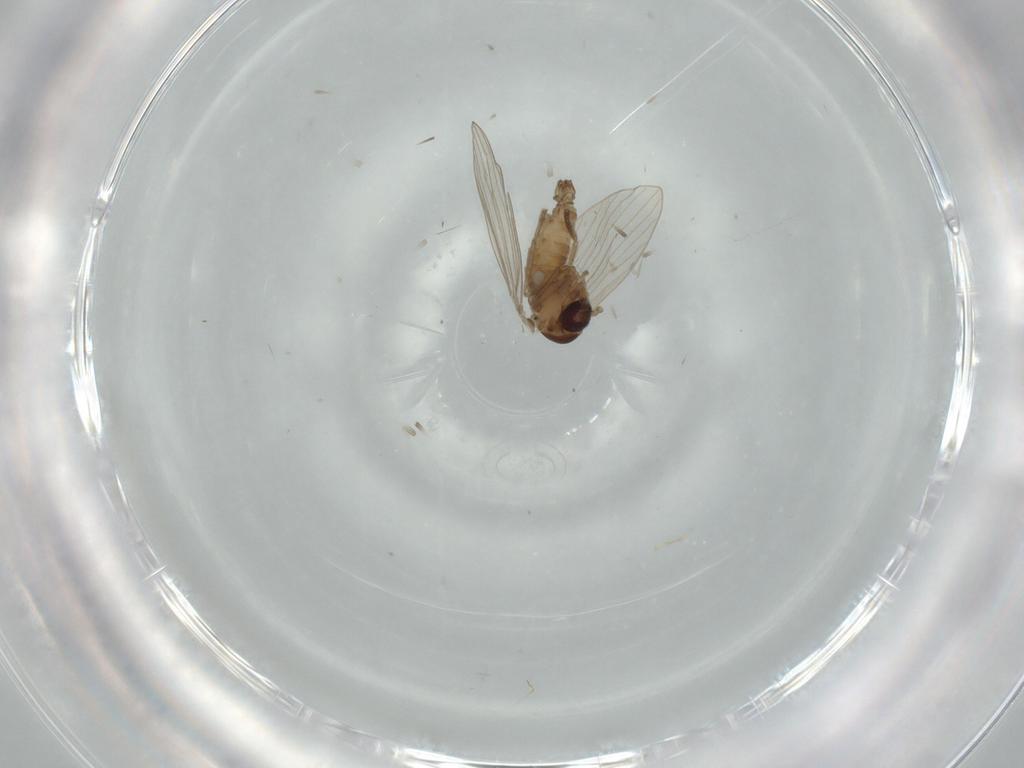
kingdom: Animalia
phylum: Arthropoda
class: Insecta
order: Diptera
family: Psychodidae
